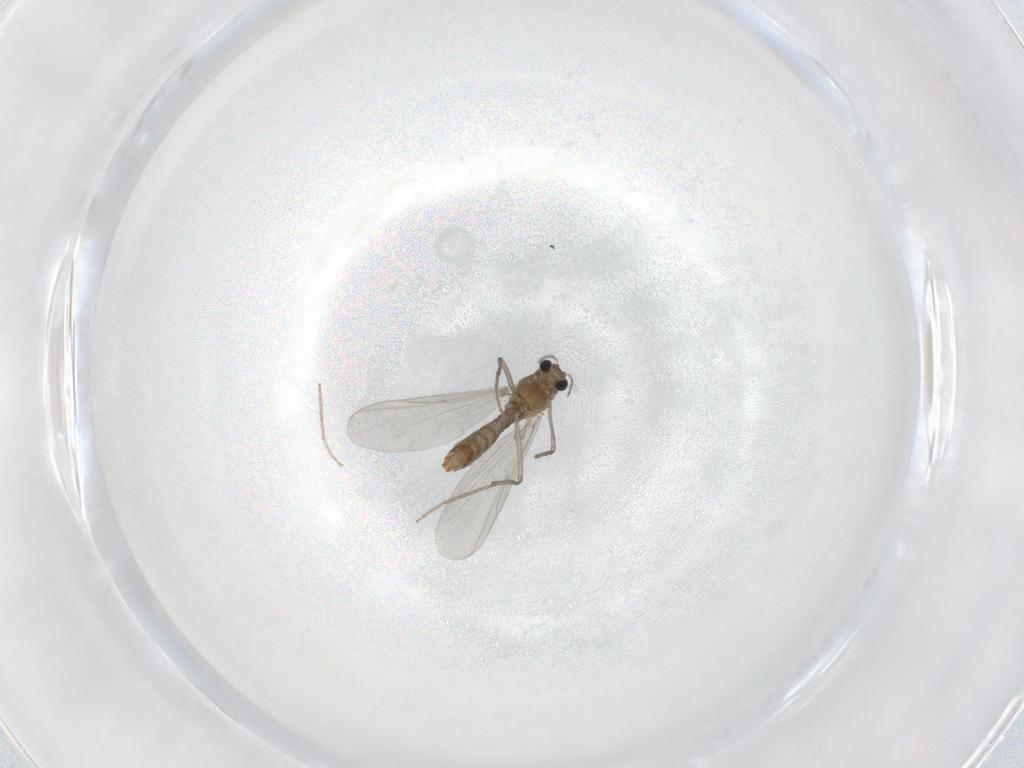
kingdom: Animalia
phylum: Arthropoda
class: Insecta
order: Diptera
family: Chironomidae
